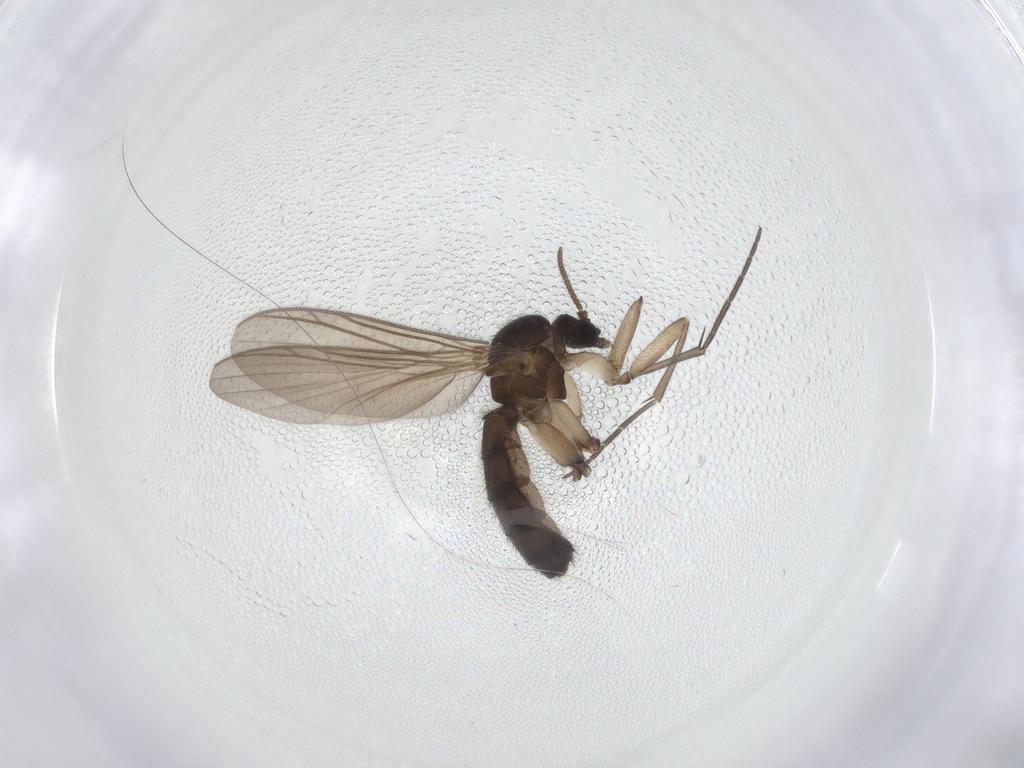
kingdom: Animalia
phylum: Arthropoda
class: Insecta
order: Diptera
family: Keroplatidae
